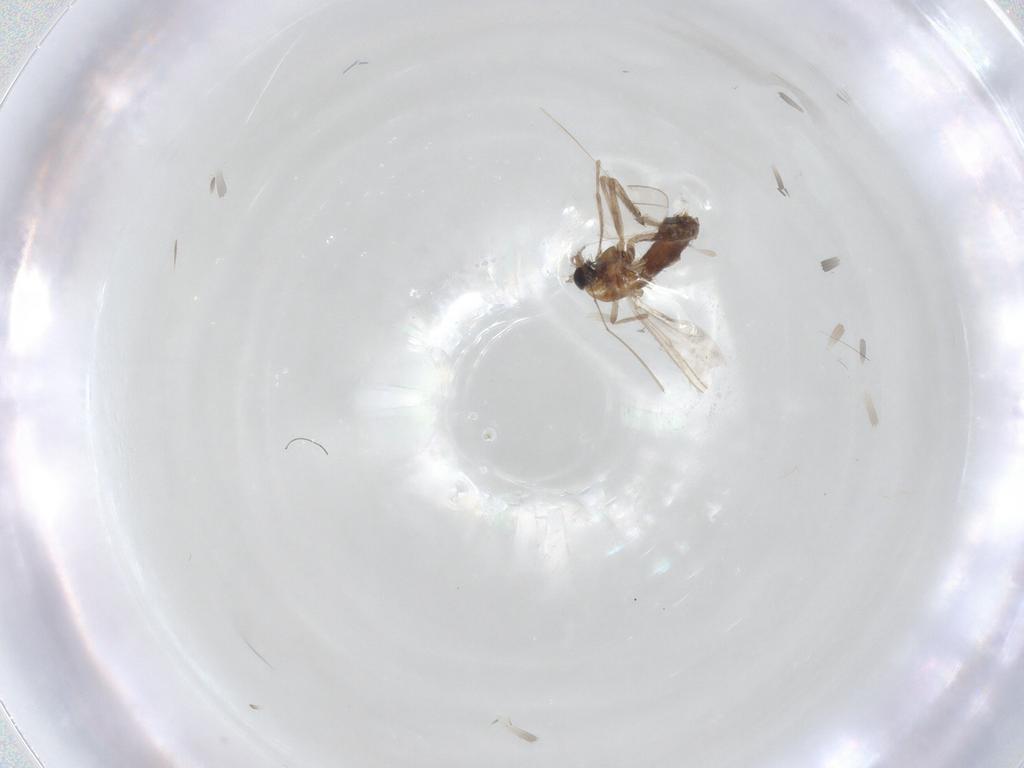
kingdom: Animalia
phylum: Arthropoda
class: Insecta
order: Diptera
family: Chironomidae
